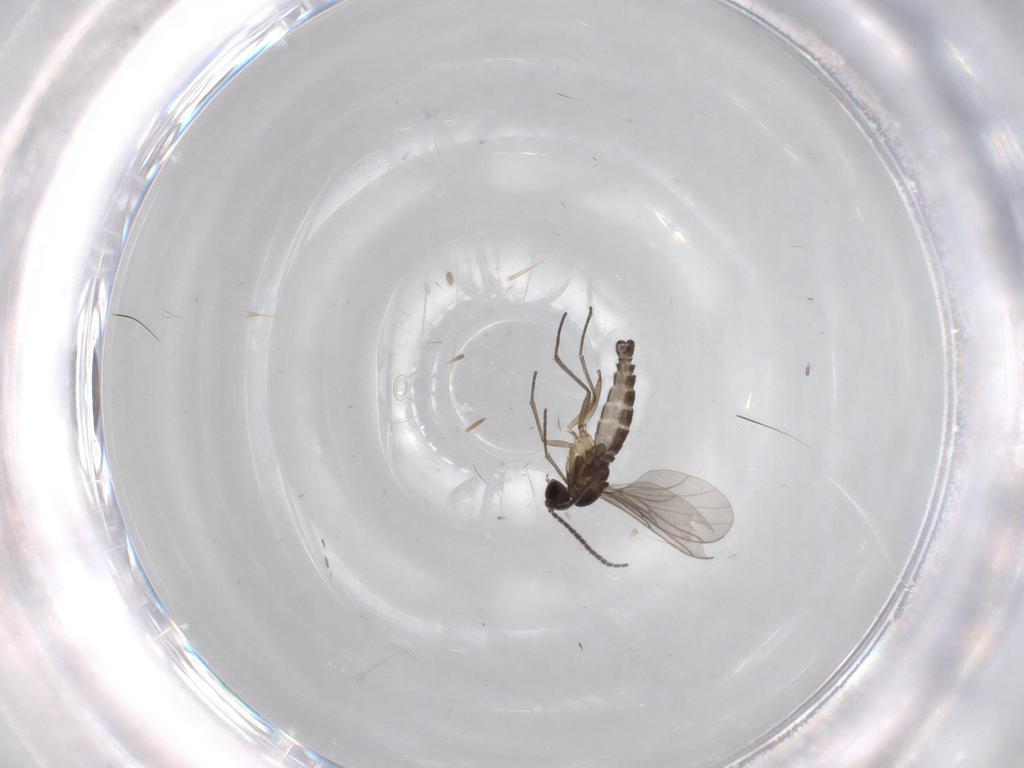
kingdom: Animalia
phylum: Arthropoda
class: Insecta
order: Diptera
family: Sciaridae
